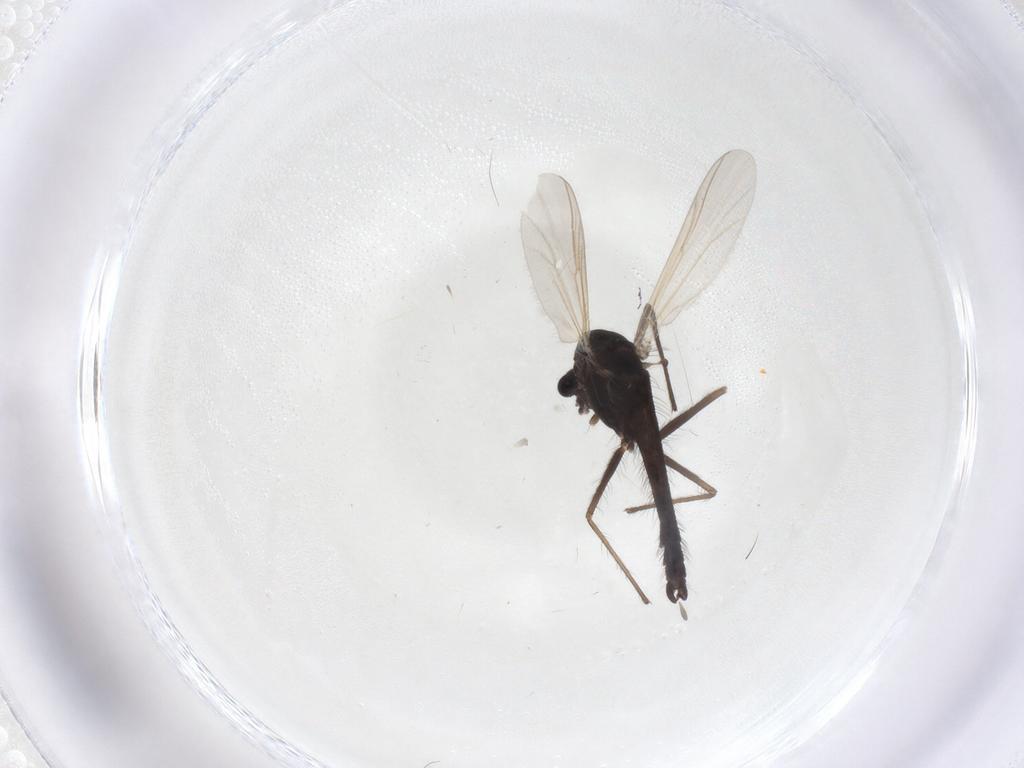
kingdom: Animalia
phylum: Arthropoda
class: Insecta
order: Diptera
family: Chironomidae
